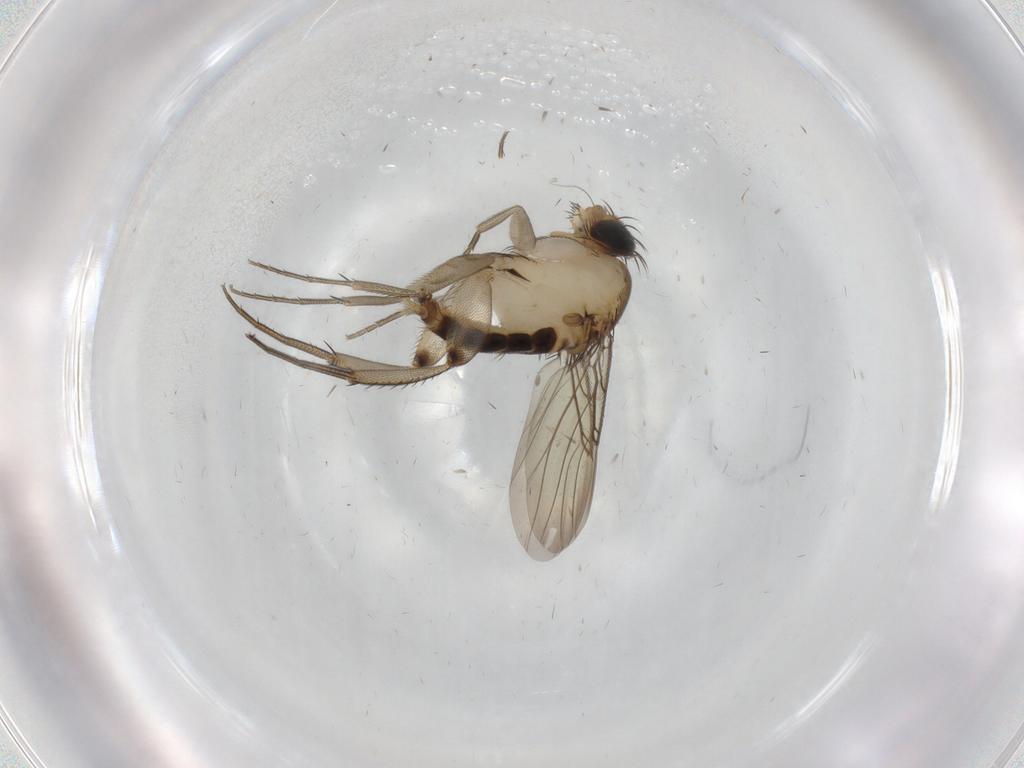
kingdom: Animalia
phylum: Arthropoda
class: Insecta
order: Diptera
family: Phoridae
